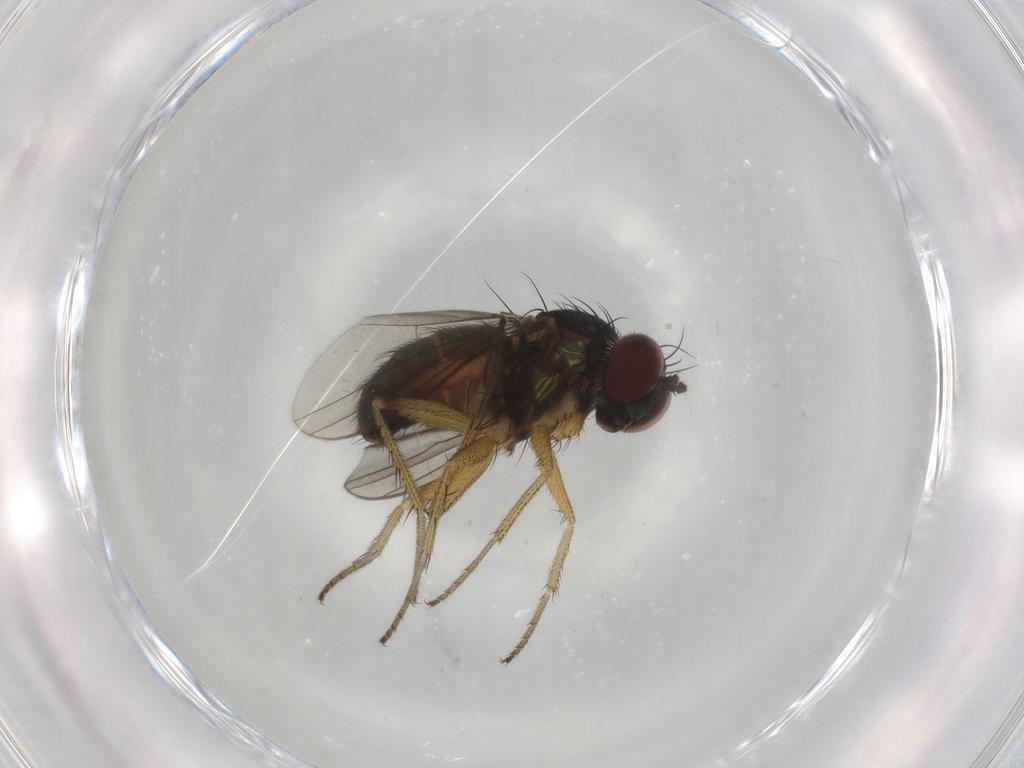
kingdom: Animalia
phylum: Arthropoda
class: Insecta
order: Diptera
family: Dolichopodidae
